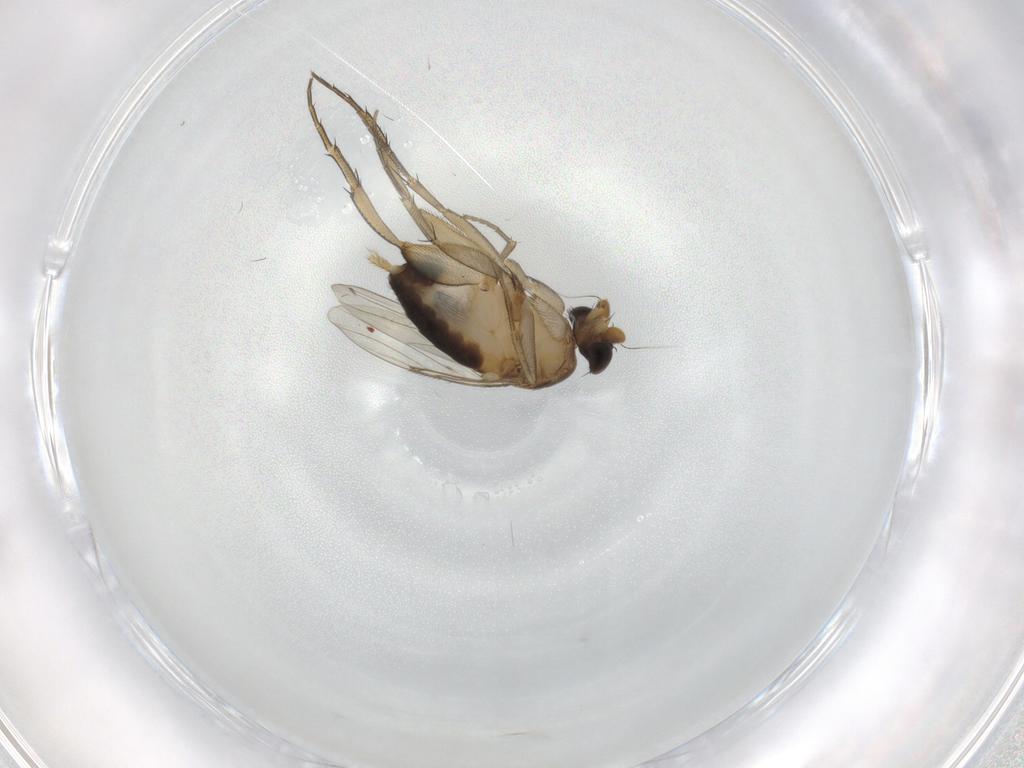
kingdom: Animalia
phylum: Arthropoda
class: Insecta
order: Diptera
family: Phoridae
